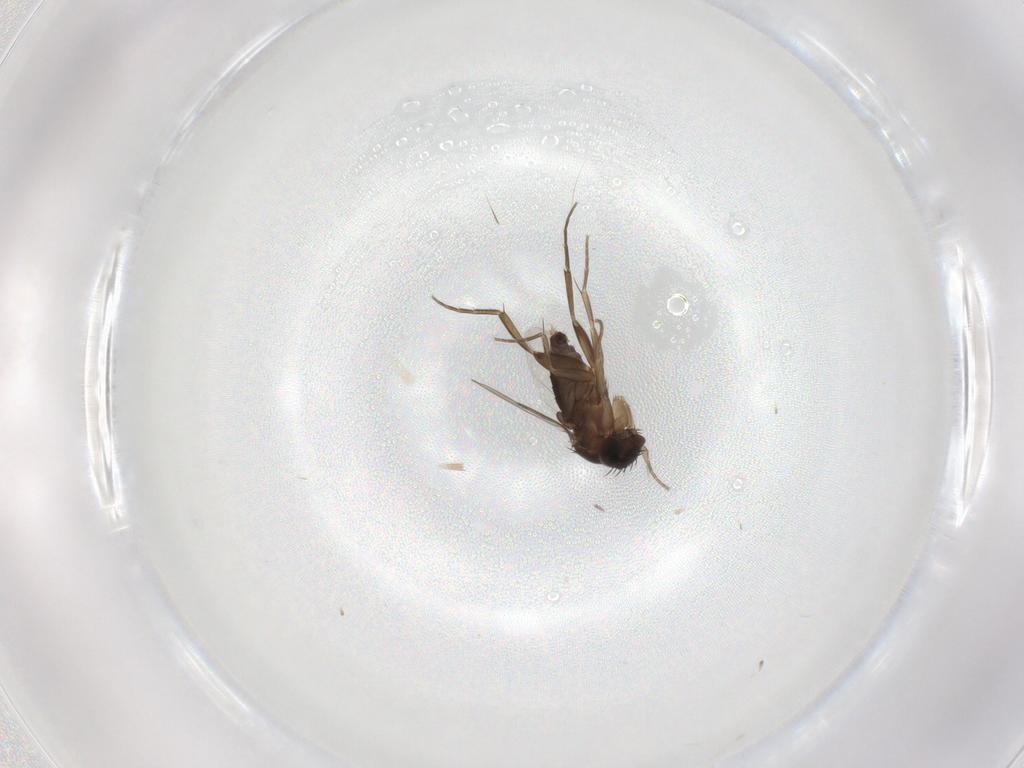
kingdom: Animalia
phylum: Arthropoda
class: Insecta
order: Diptera
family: Phoridae
